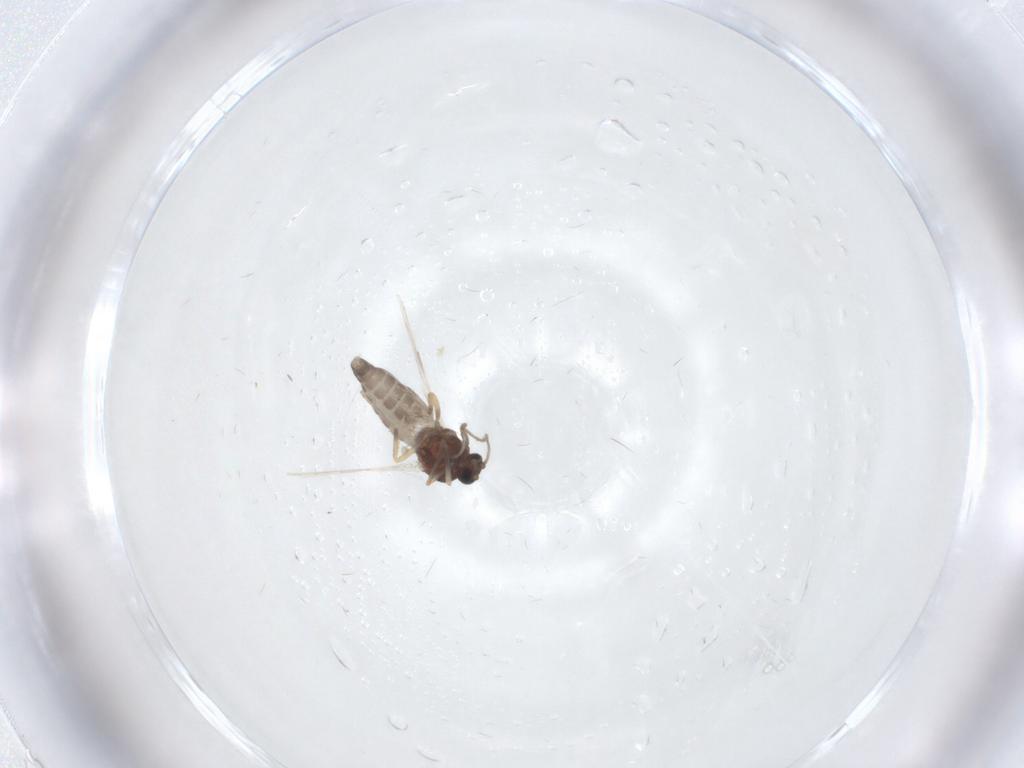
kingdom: Animalia
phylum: Arthropoda
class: Insecta
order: Diptera
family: Ceratopogonidae
